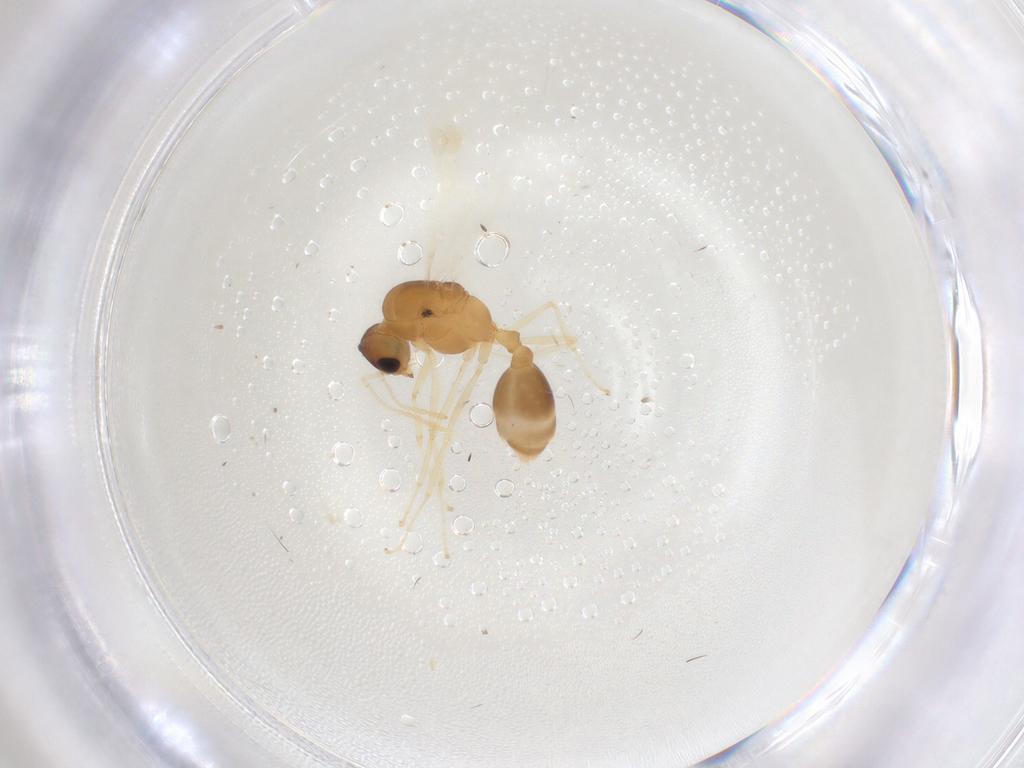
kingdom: Animalia
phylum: Arthropoda
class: Insecta
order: Hymenoptera
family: Formicidae
